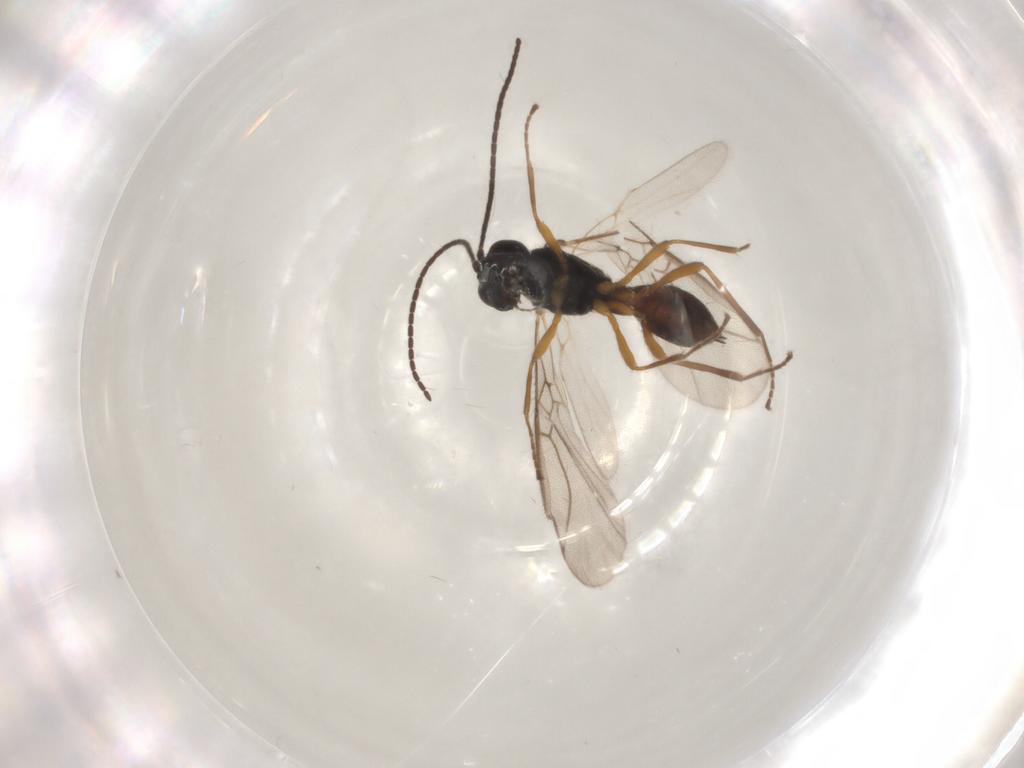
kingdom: Animalia
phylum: Arthropoda
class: Insecta
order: Hymenoptera
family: Braconidae
